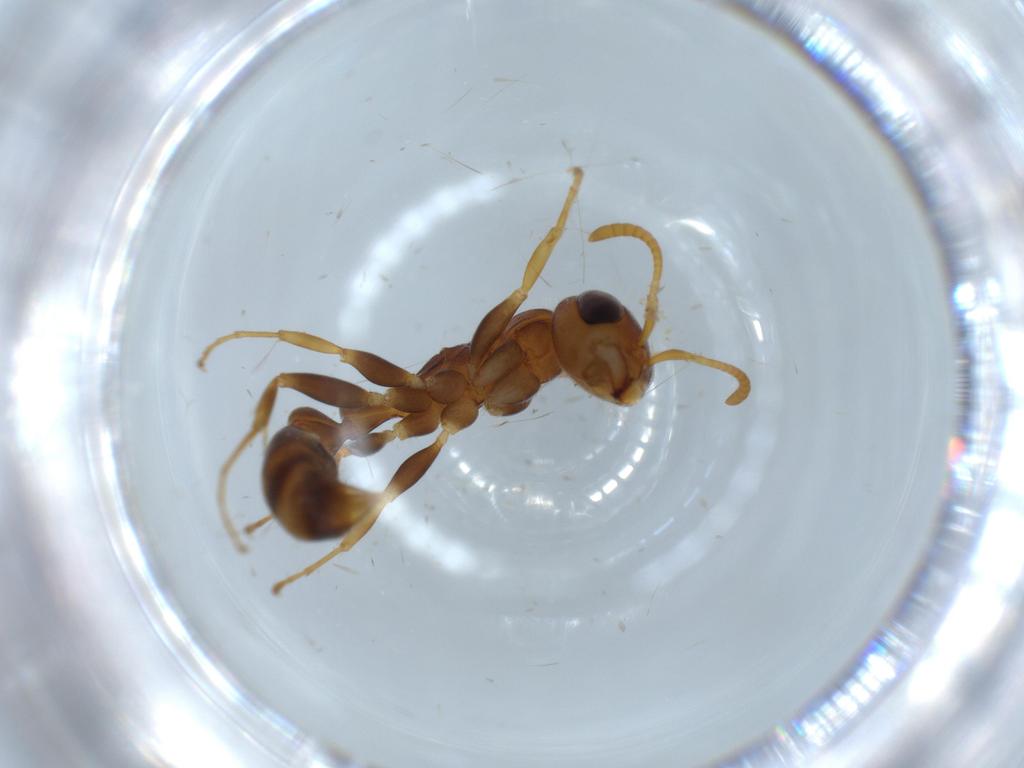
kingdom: Animalia
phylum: Arthropoda
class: Insecta
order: Hymenoptera
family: Formicidae
